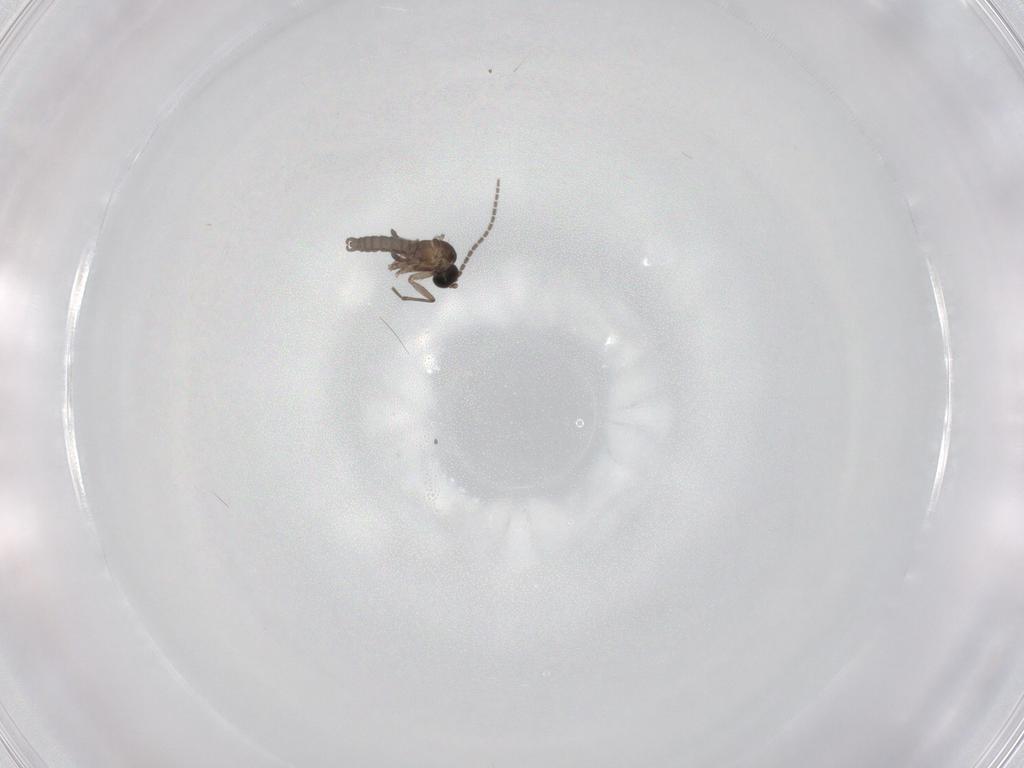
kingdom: Animalia
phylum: Arthropoda
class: Insecta
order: Diptera
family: Sciaridae
